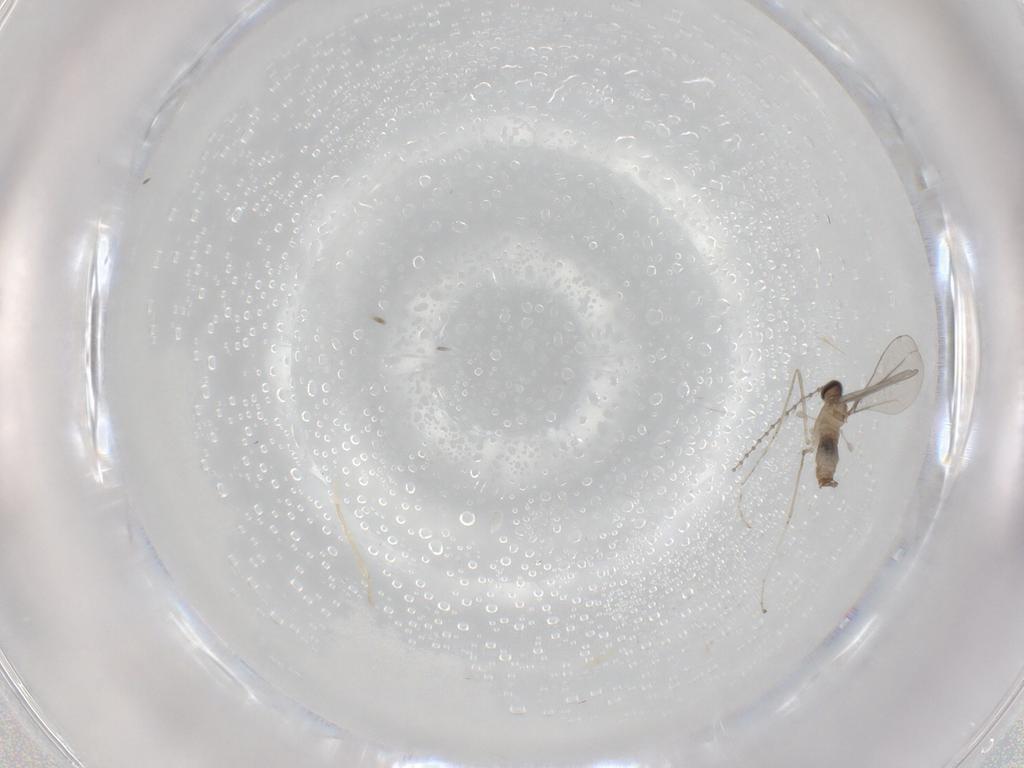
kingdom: Animalia
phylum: Arthropoda
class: Insecta
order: Diptera
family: Cecidomyiidae
